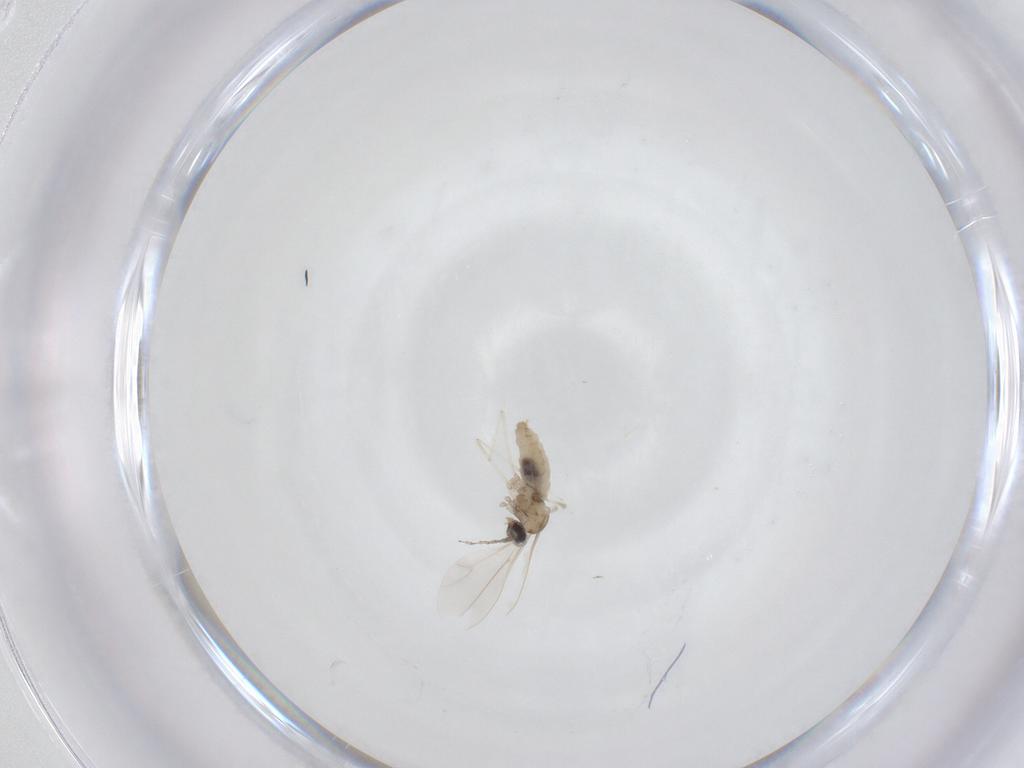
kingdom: Animalia
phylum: Arthropoda
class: Insecta
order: Diptera
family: Cecidomyiidae
